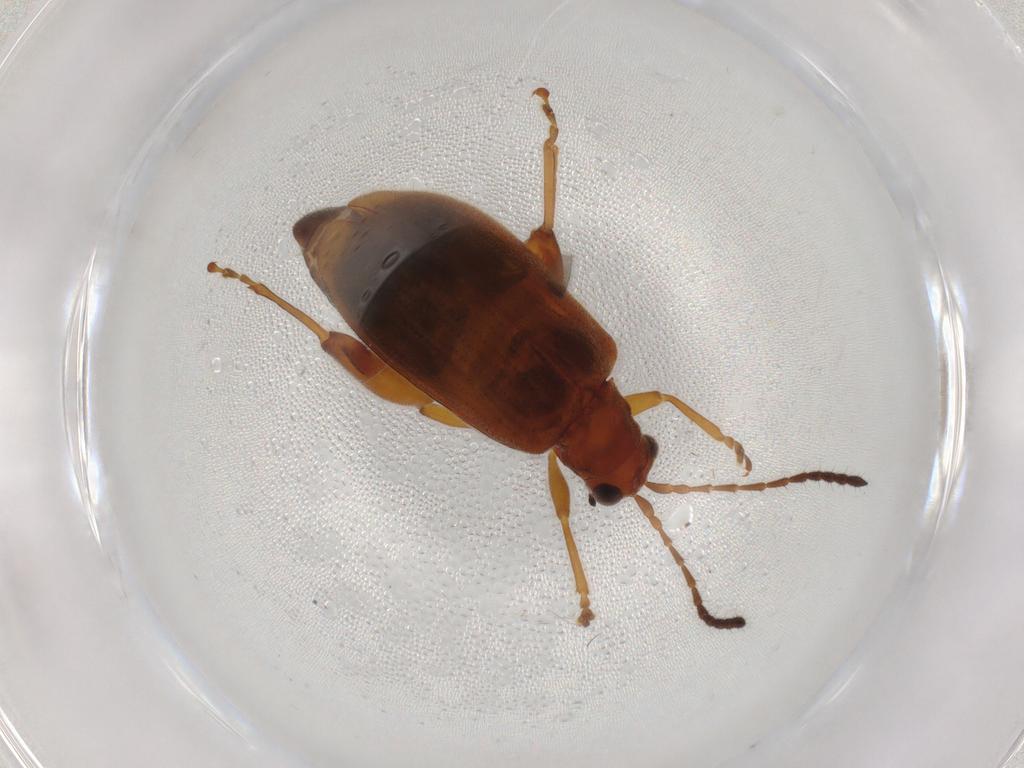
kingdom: Animalia
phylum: Arthropoda
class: Insecta
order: Coleoptera
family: Chrysomelidae
